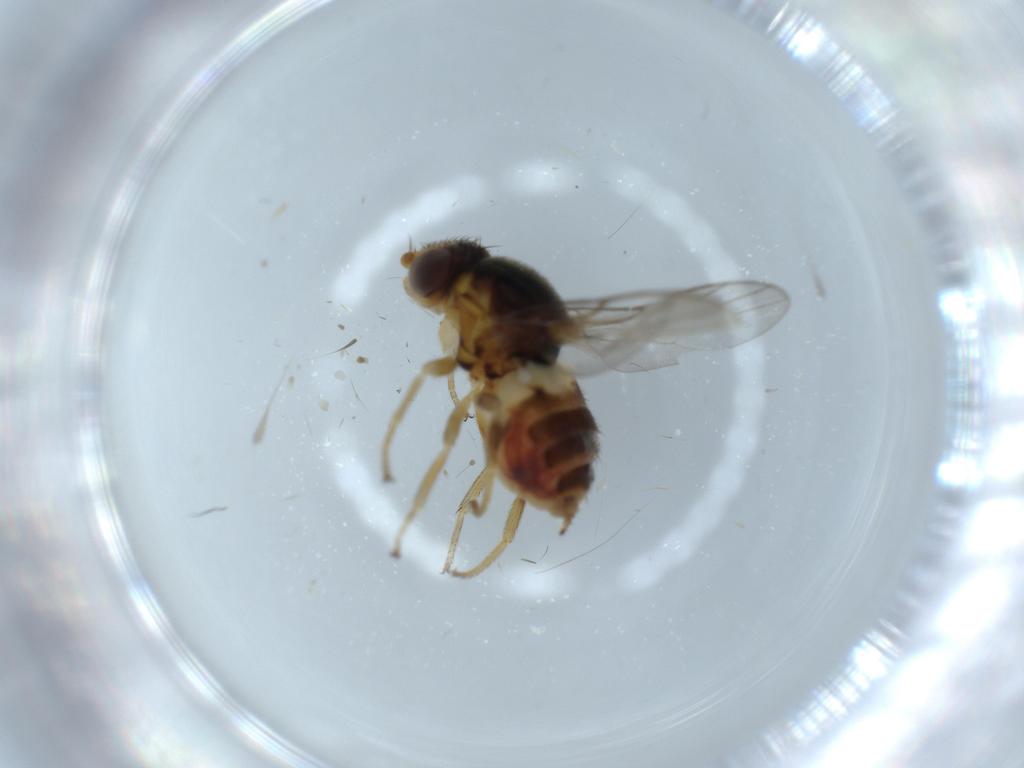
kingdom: Animalia
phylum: Arthropoda
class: Insecta
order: Diptera
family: Chloropidae
